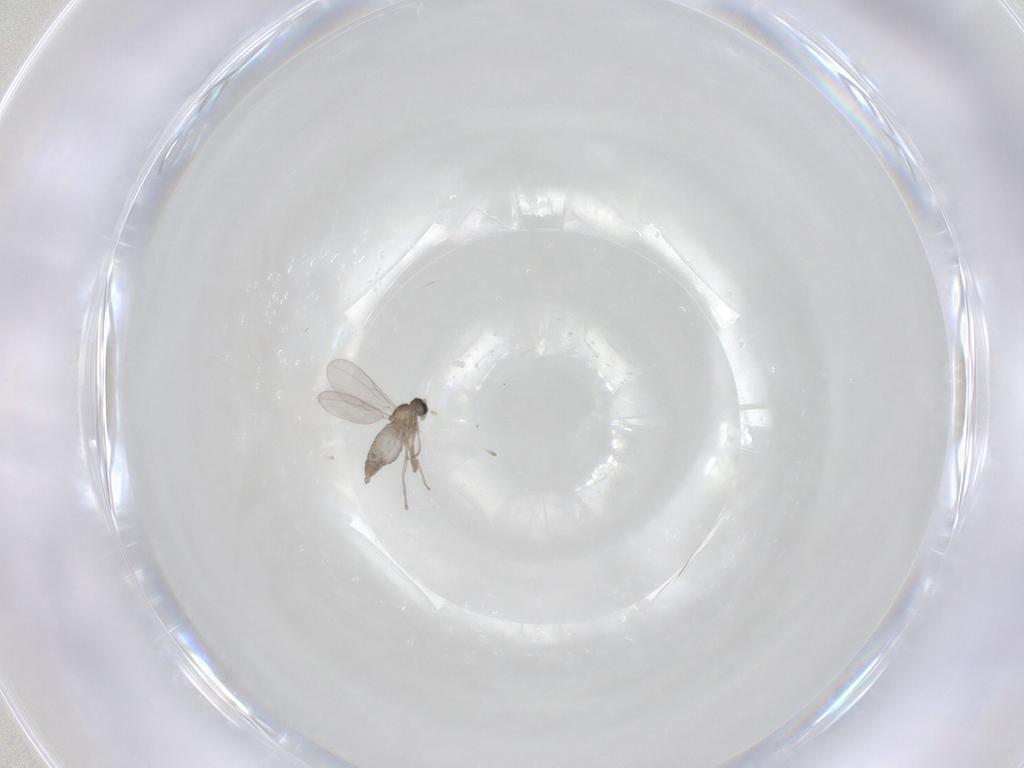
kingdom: Animalia
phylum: Arthropoda
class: Insecta
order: Diptera
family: Cecidomyiidae
